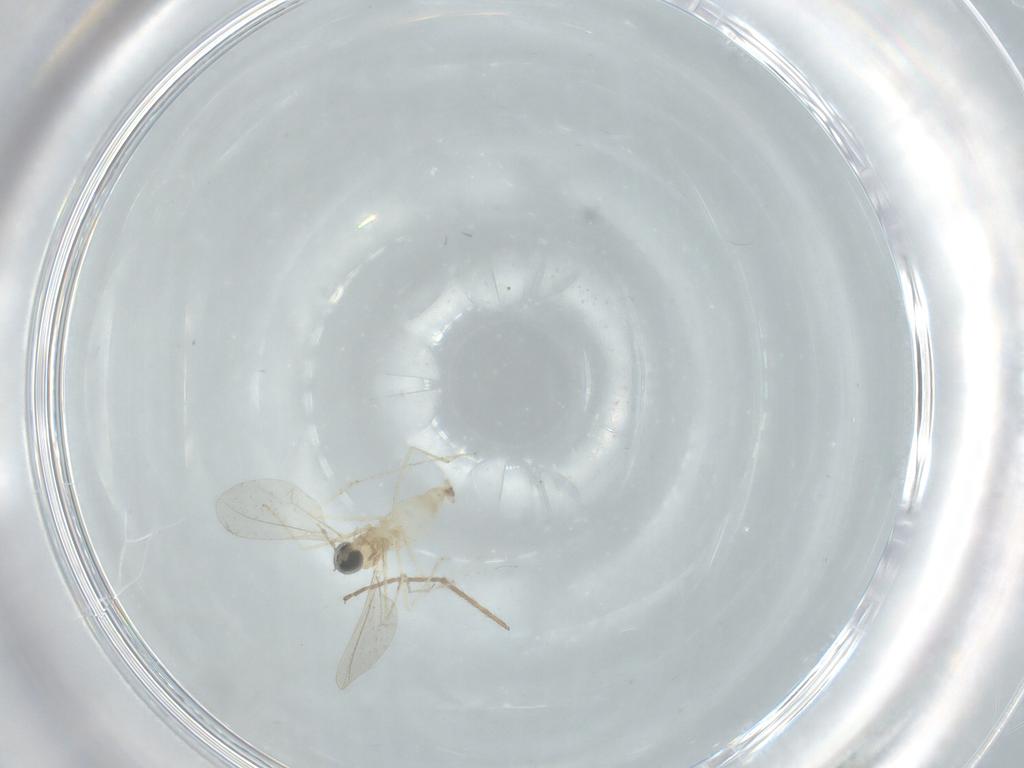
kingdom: Animalia
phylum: Arthropoda
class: Insecta
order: Diptera
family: Cecidomyiidae
